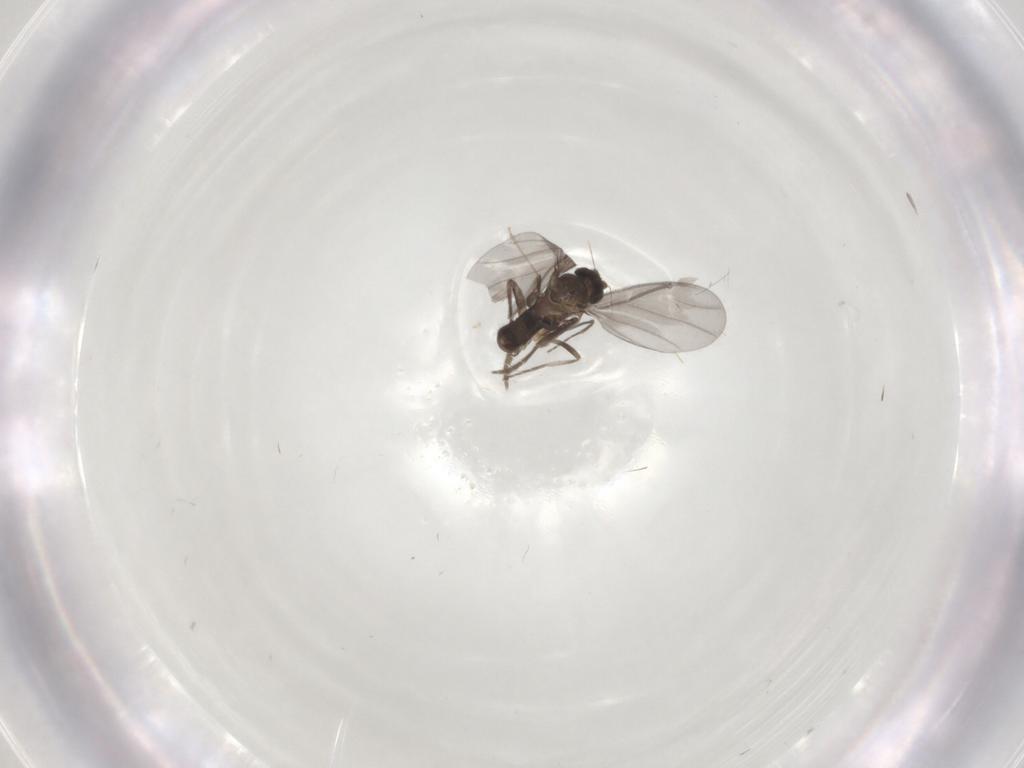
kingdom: Animalia
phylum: Arthropoda
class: Insecta
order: Diptera
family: Phoridae
